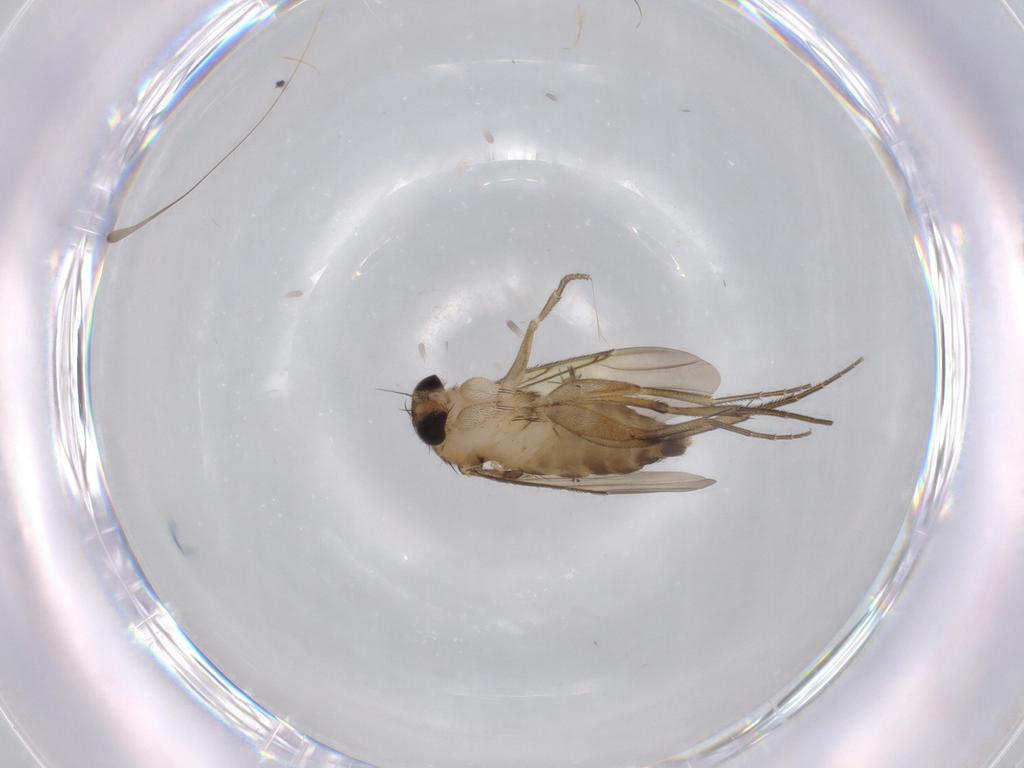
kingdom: Animalia
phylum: Arthropoda
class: Insecta
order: Diptera
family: Phoridae
